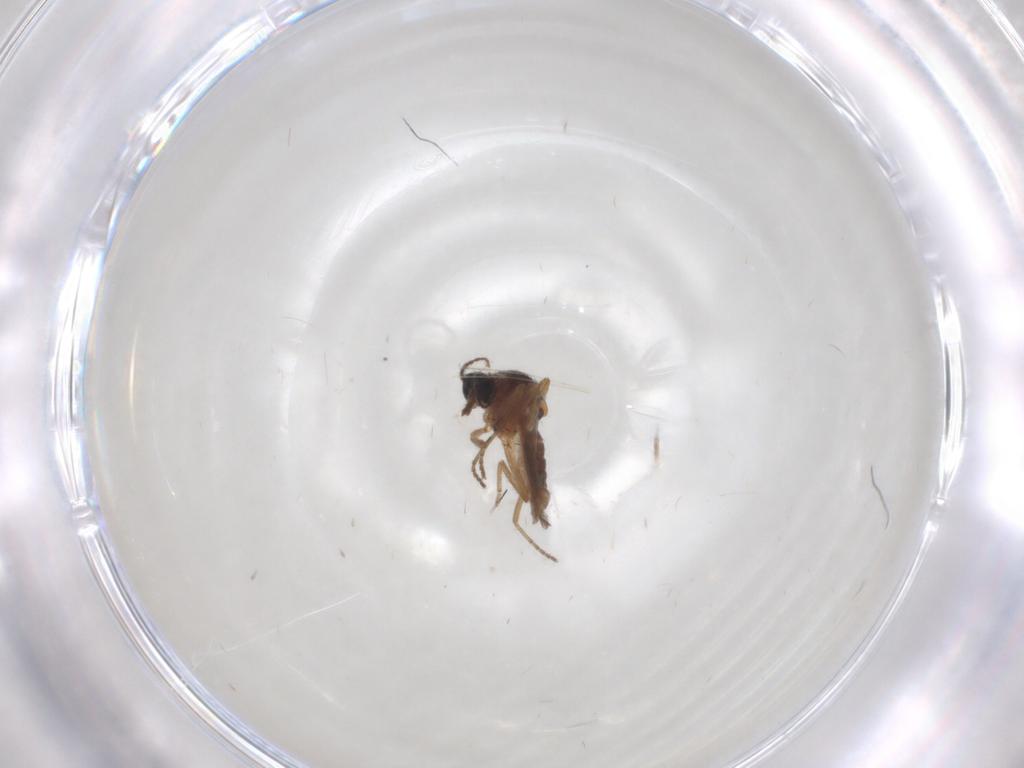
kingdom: Animalia
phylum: Arthropoda
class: Insecta
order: Diptera
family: Ceratopogonidae
